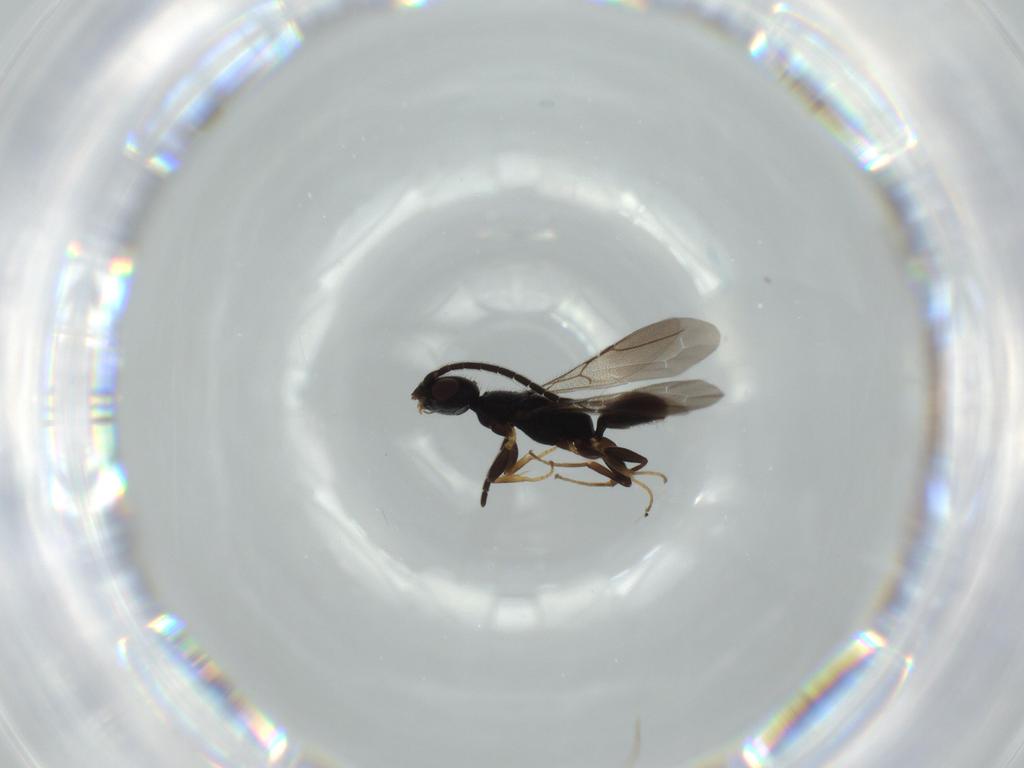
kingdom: Animalia
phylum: Arthropoda
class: Insecta
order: Hymenoptera
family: Bethylidae
